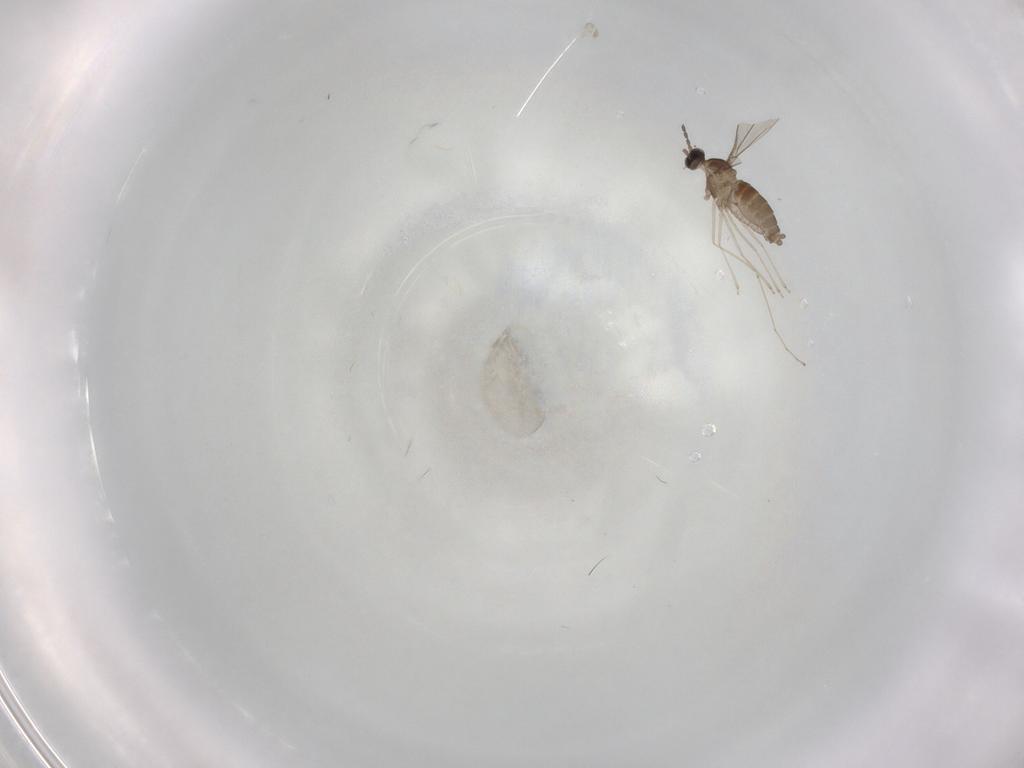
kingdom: Animalia
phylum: Arthropoda
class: Insecta
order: Diptera
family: Cecidomyiidae
